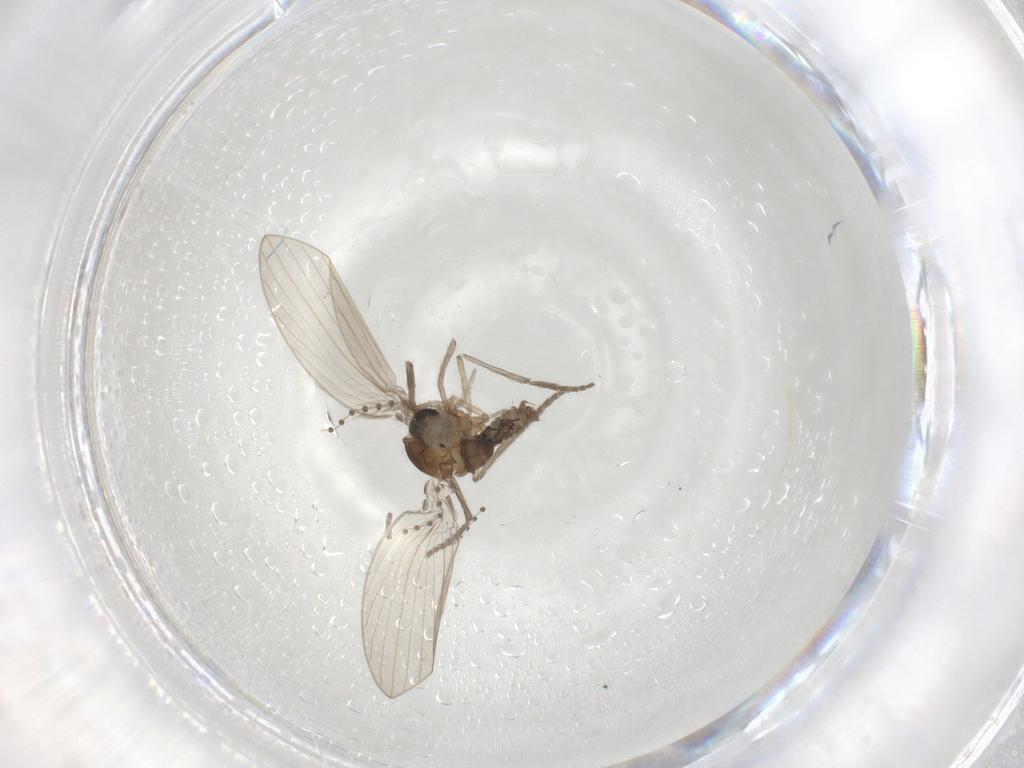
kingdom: Animalia
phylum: Arthropoda
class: Insecta
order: Diptera
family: Psychodidae
